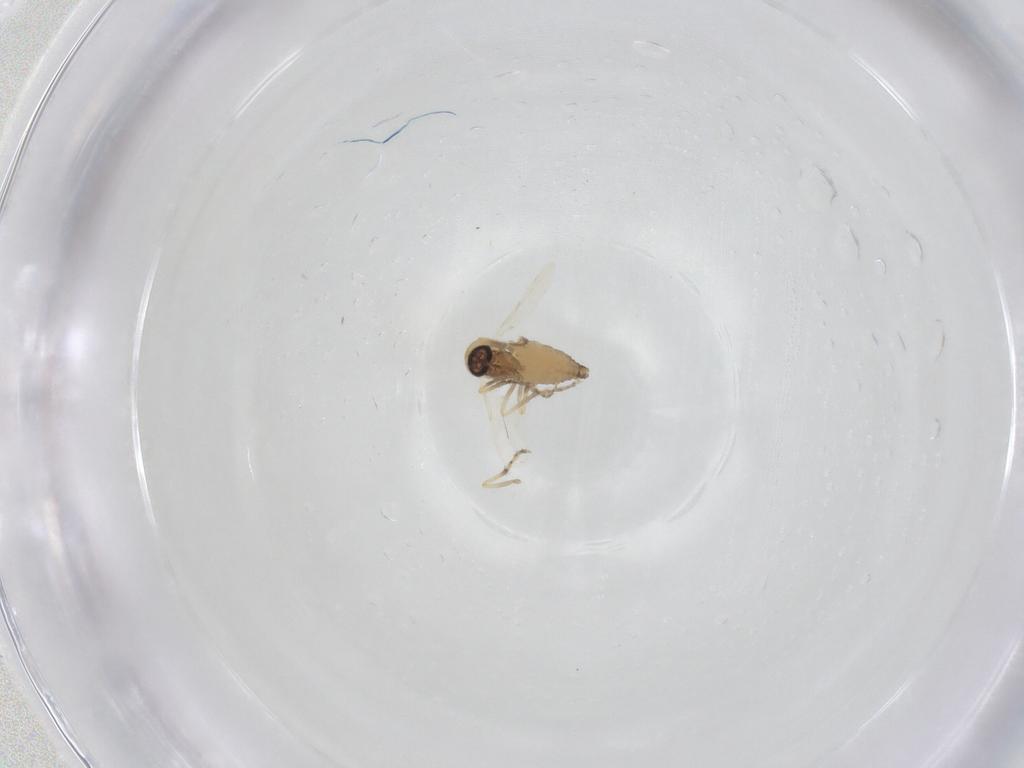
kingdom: Animalia
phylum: Arthropoda
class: Insecta
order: Diptera
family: Ceratopogonidae
